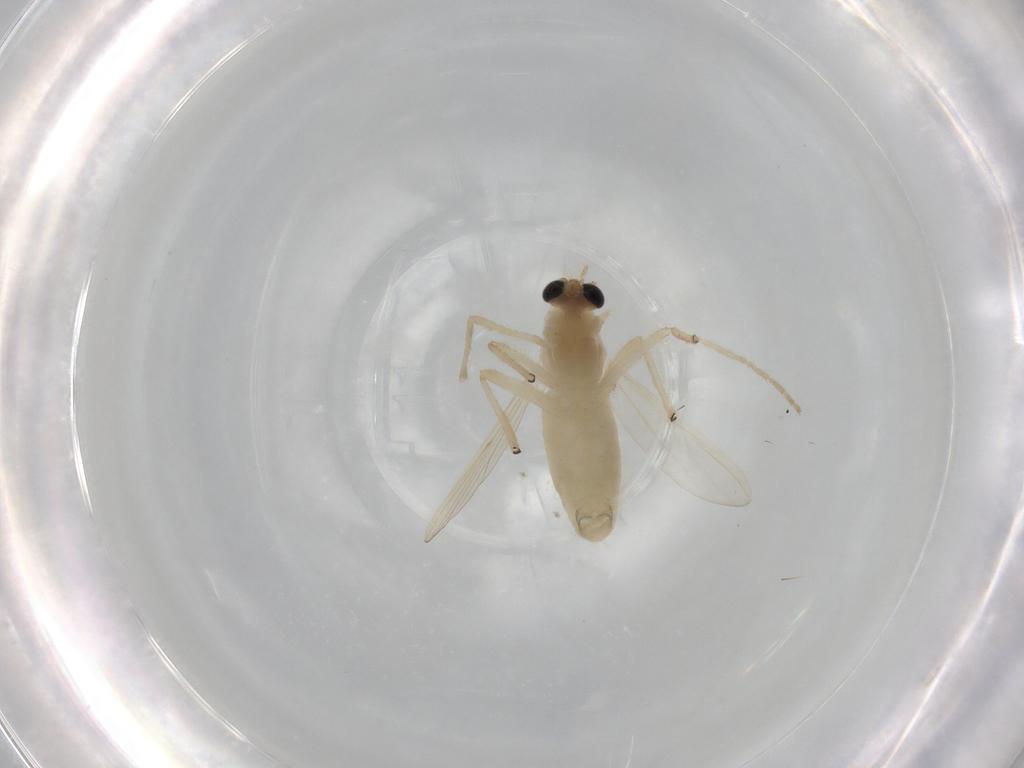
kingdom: Animalia
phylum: Arthropoda
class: Insecta
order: Diptera
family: Chironomidae
